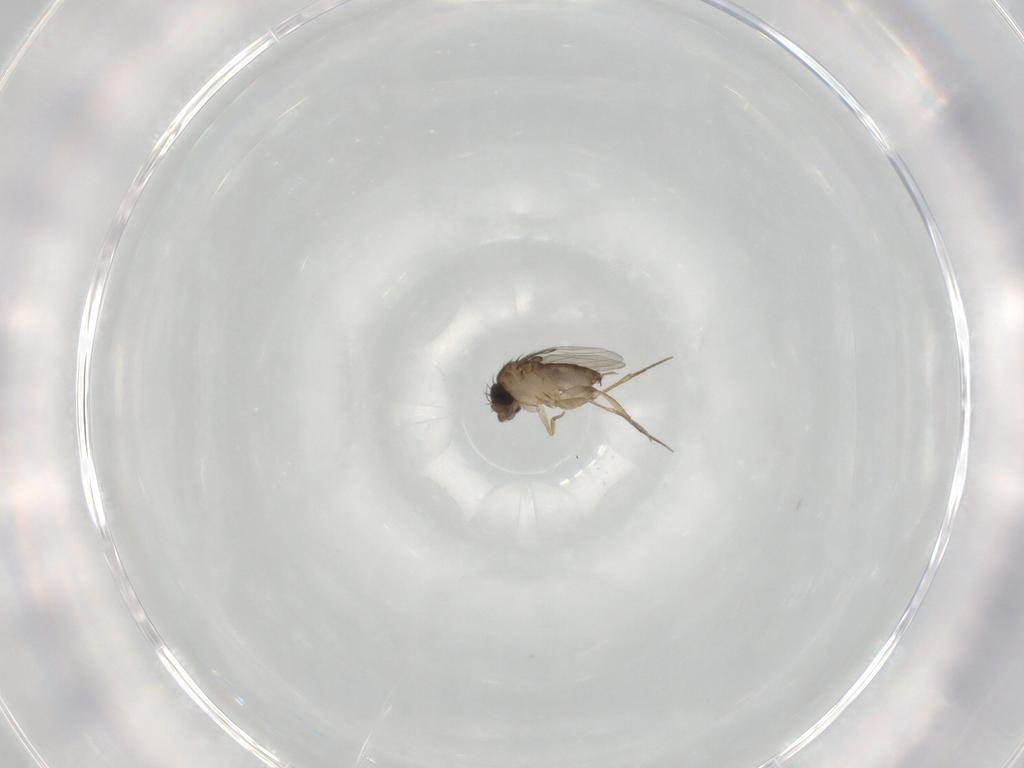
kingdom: Animalia
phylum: Arthropoda
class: Insecta
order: Diptera
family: Phoridae
